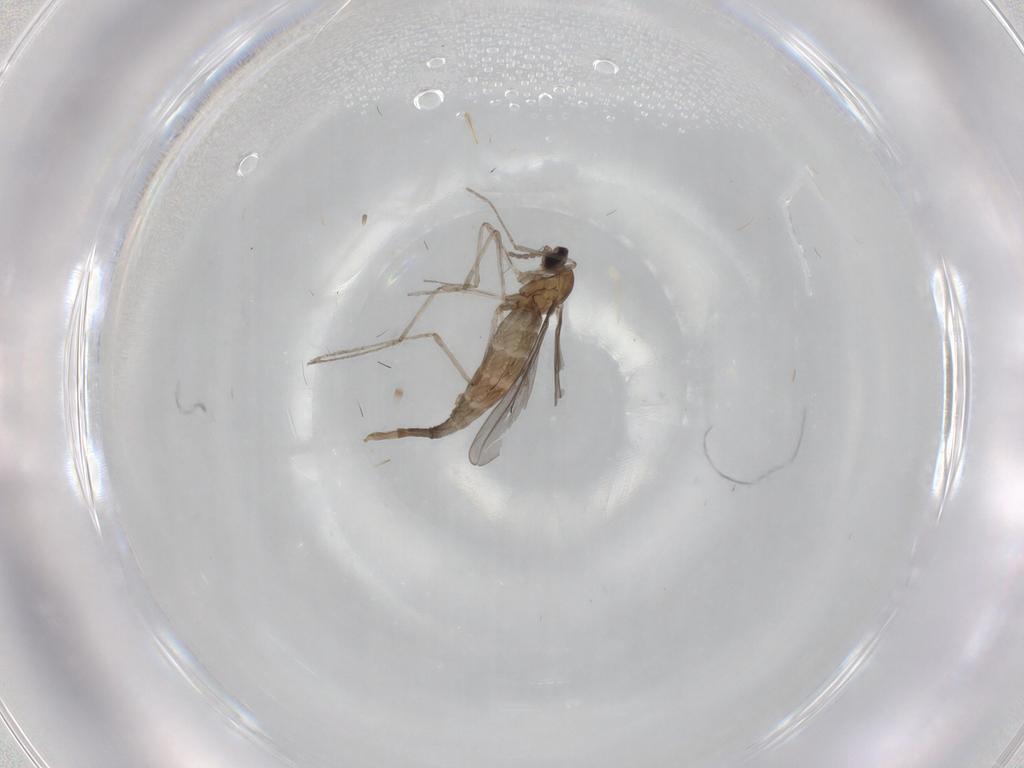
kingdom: Animalia
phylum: Arthropoda
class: Insecta
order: Diptera
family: Cecidomyiidae
